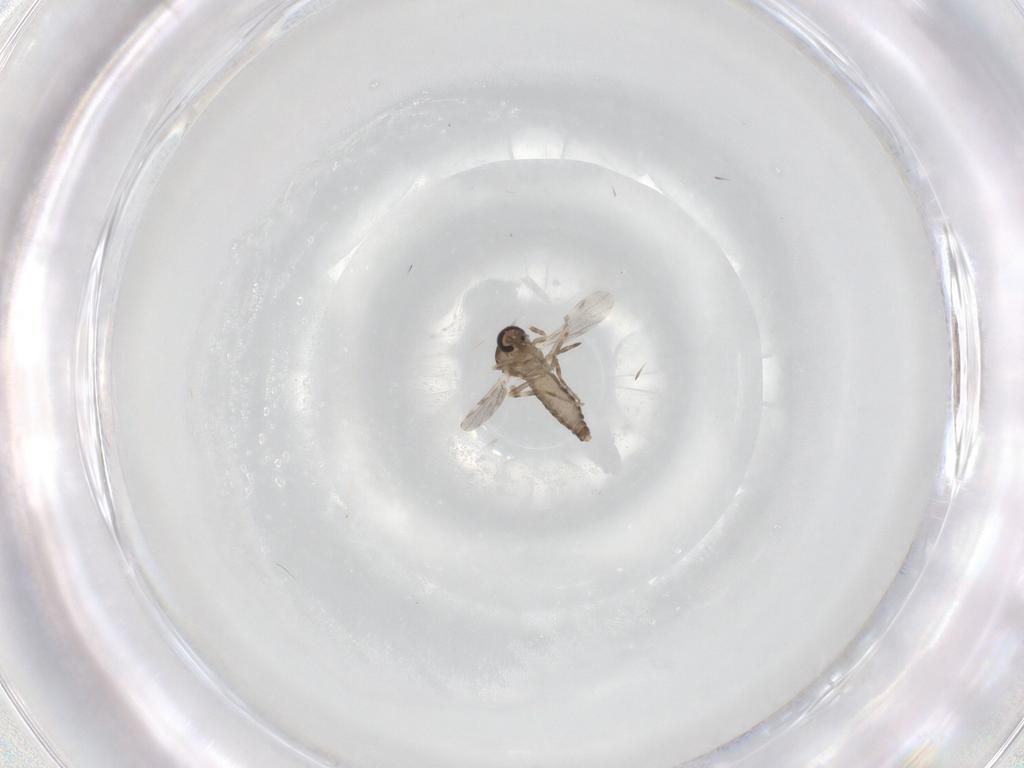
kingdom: Animalia
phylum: Arthropoda
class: Insecta
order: Diptera
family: Ceratopogonidae
